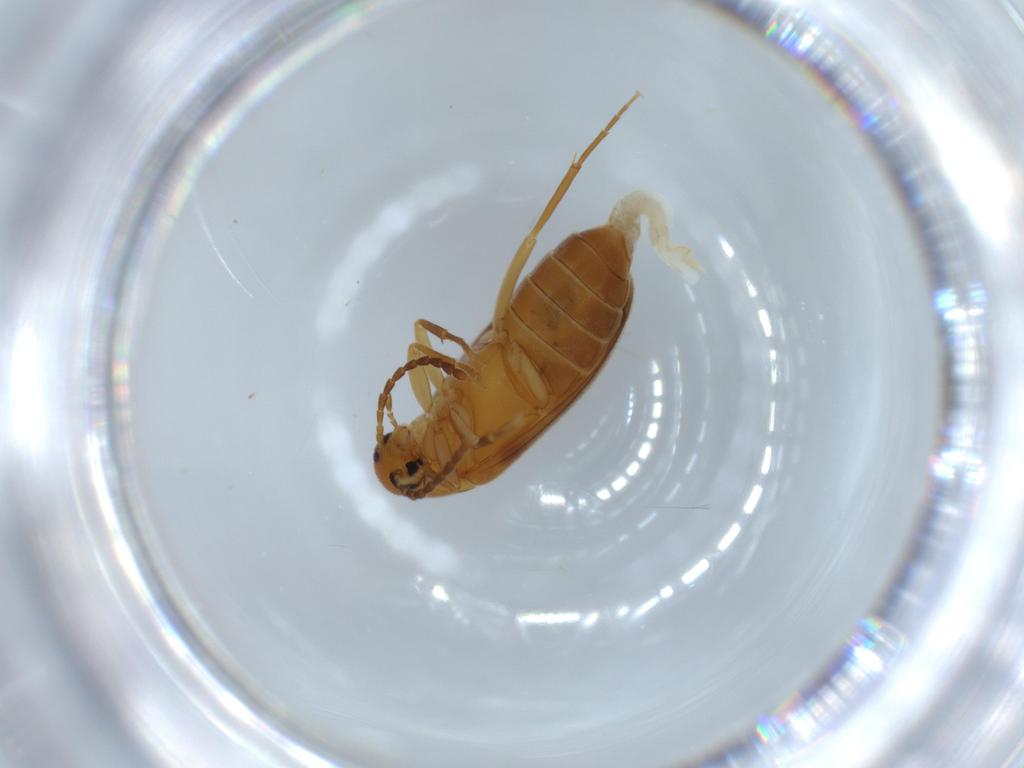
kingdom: Animalia
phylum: Arthropoda
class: Insecta
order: Coleoptera
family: Scraptiidae
